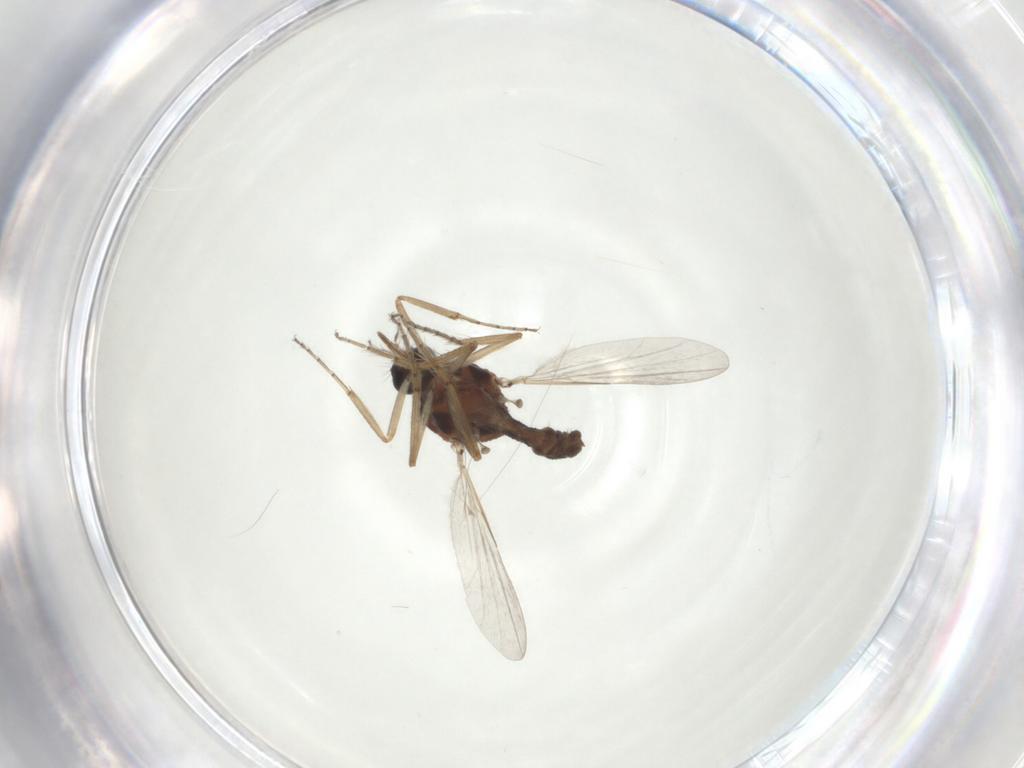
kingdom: Animalia
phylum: Arthropoda
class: Insecta
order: Diptera
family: Ceratopogonidae
